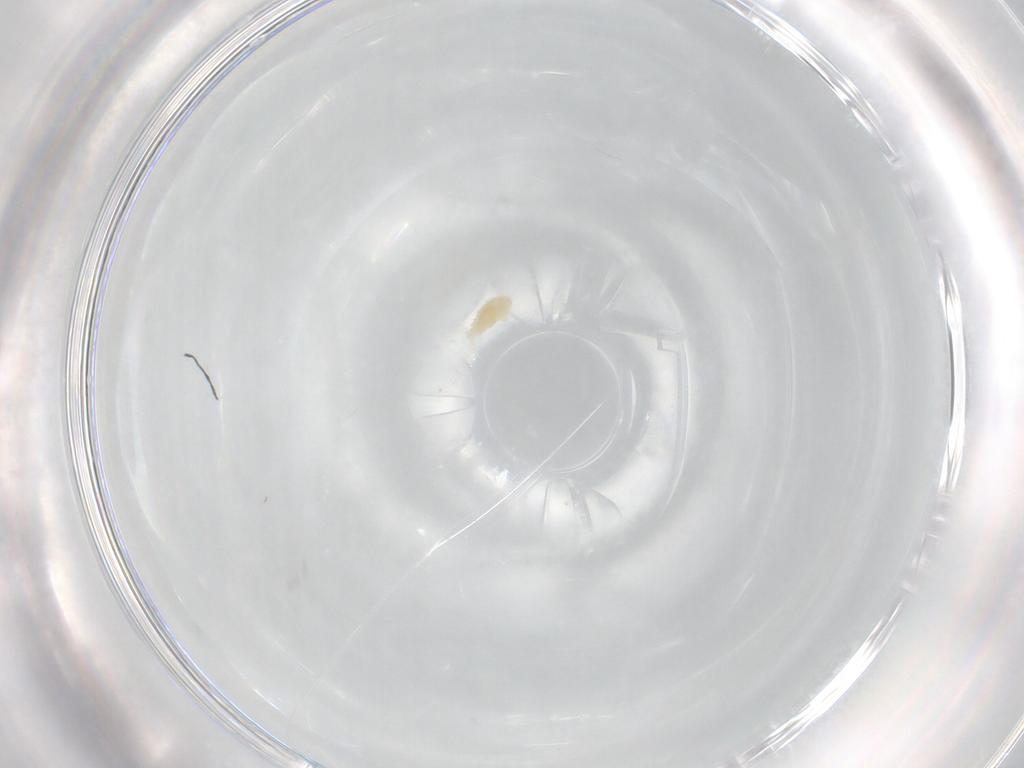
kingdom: Animalia
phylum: Arthropoda
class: Arachnida
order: Trombidiformes
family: Eupodidae
